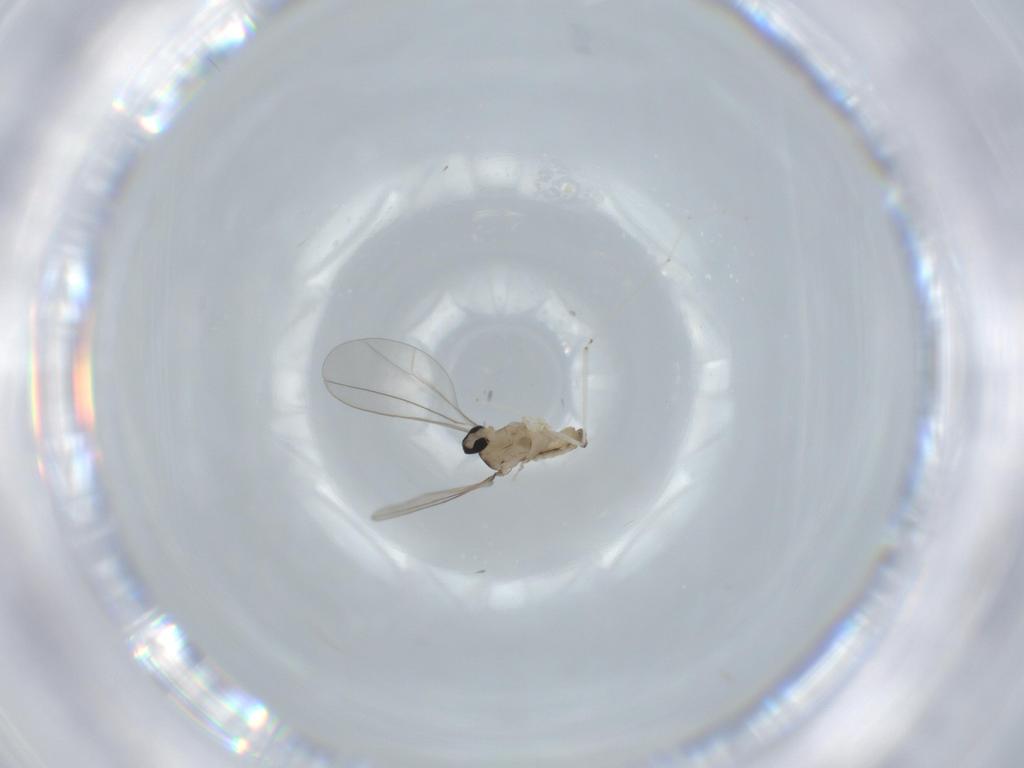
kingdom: Animalia
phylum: Arthropoda
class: Insecta
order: Diptera
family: Cecidomyiidae
